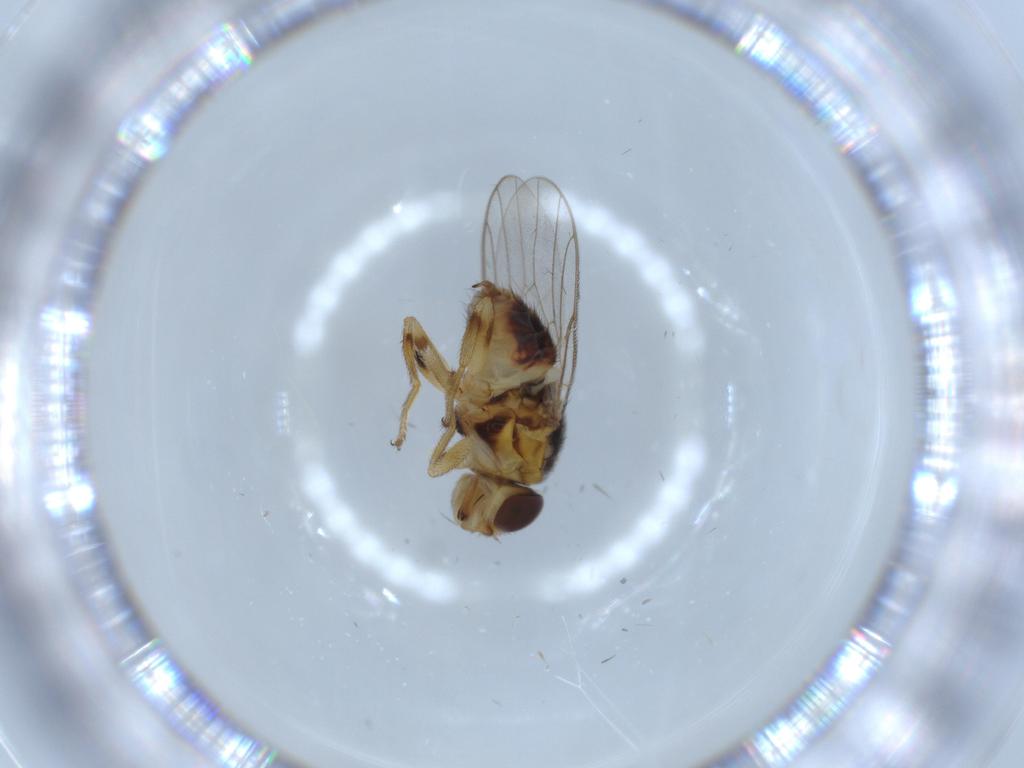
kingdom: Animalia
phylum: Arthropoda
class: Insecta
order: Diptera
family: Chloropidae
